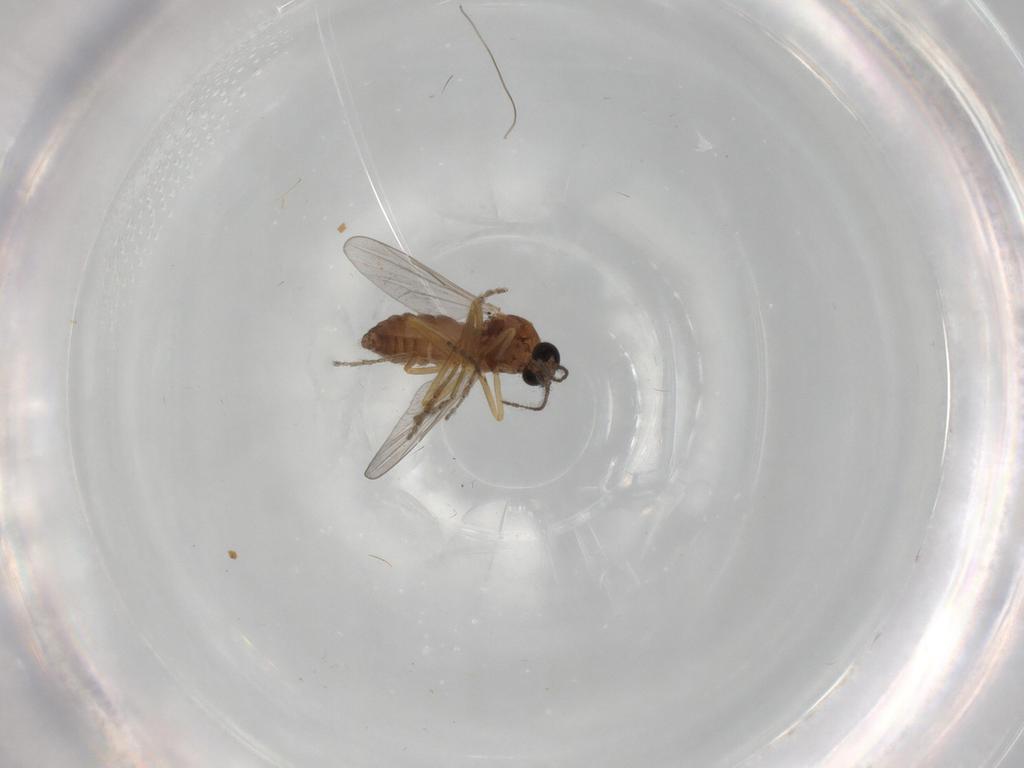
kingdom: Animalia
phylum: Arthropoda
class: Insecta
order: Diptera
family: Ceratopogonidae
